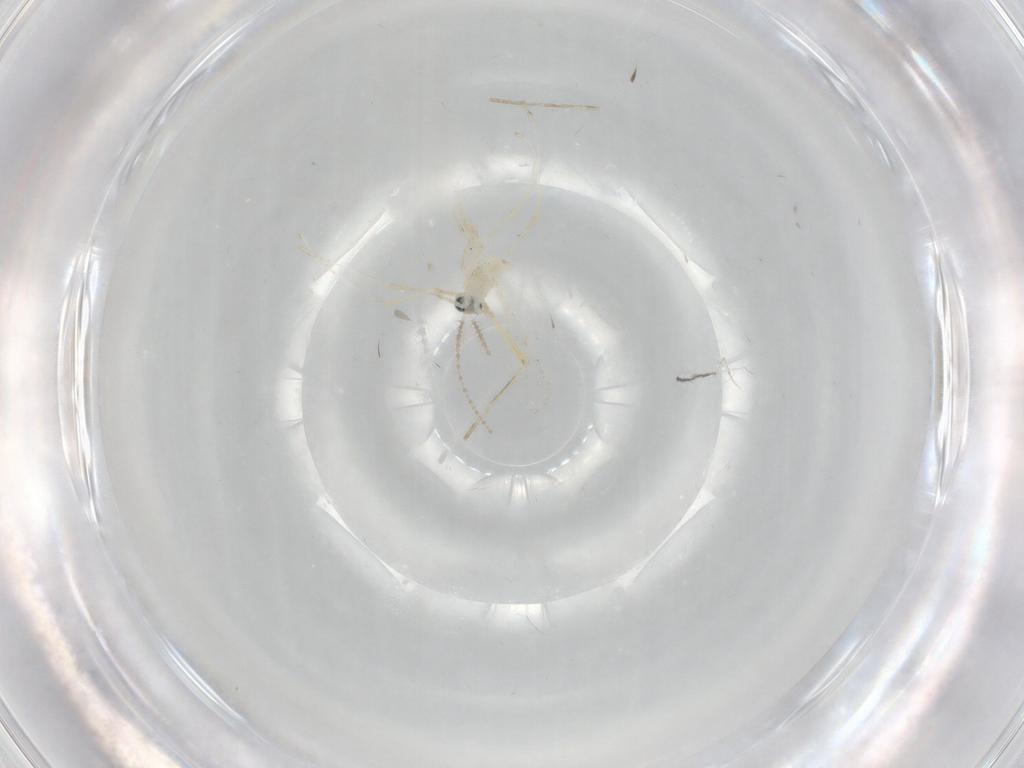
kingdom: Animalia
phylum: Arthropoda
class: Insecta
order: Diptera
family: Cecidomyiidae
